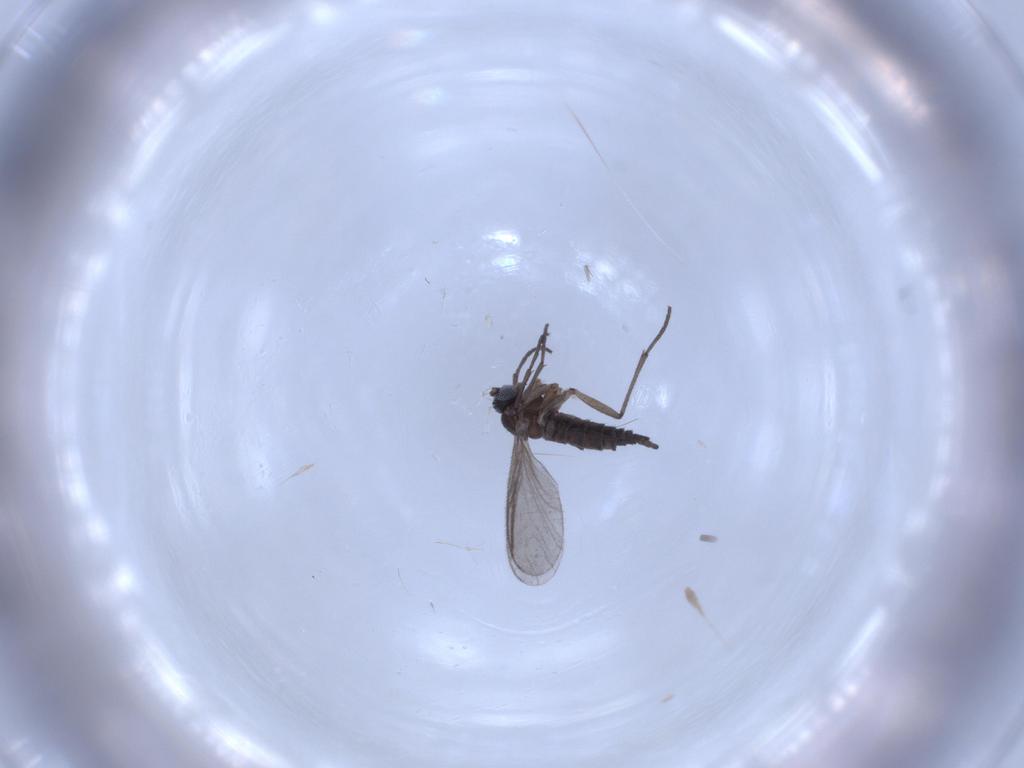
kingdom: Animalia
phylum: Arthropoda
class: Insecta
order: Diptera
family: Sciaridae
